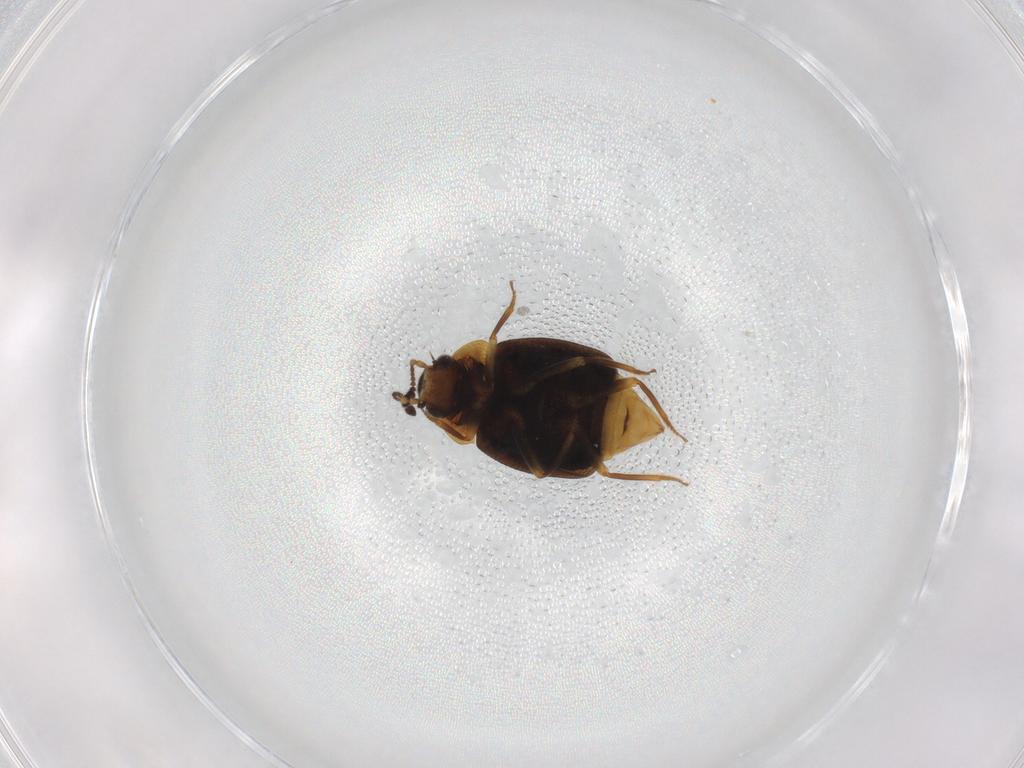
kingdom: Animalia
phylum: Arthropoda
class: Insecta
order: Coleoptera
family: Staphylinidae
